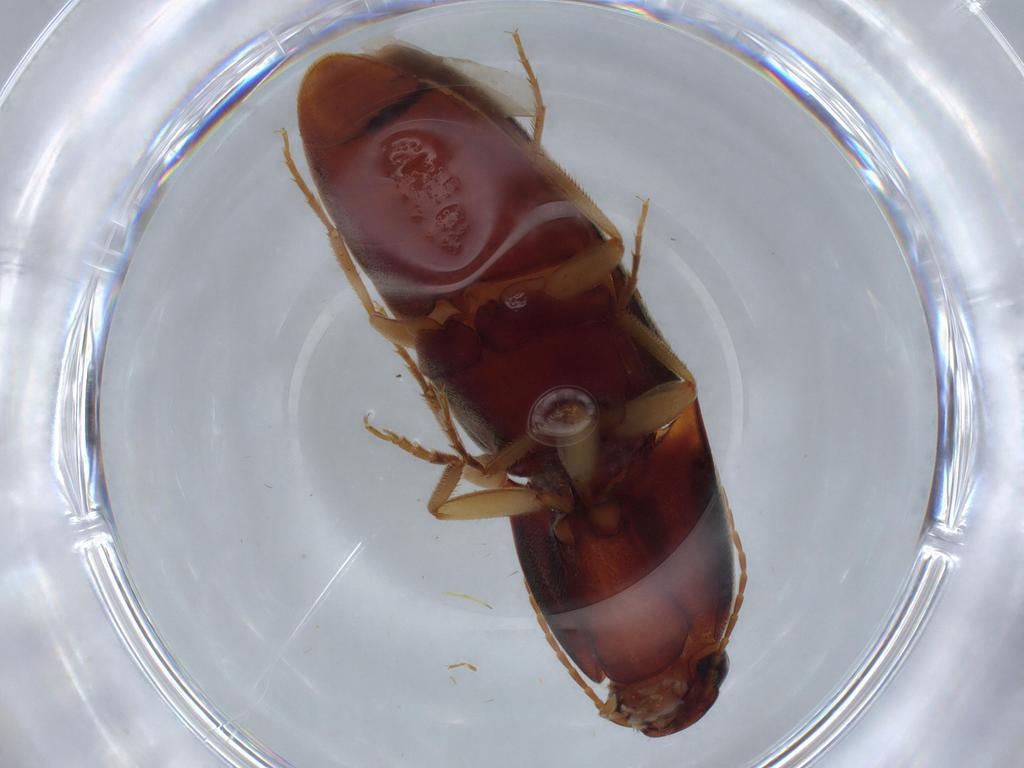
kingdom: Animalia
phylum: Arthropoda
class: Insecta
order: Coleoptera
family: Elateridae
